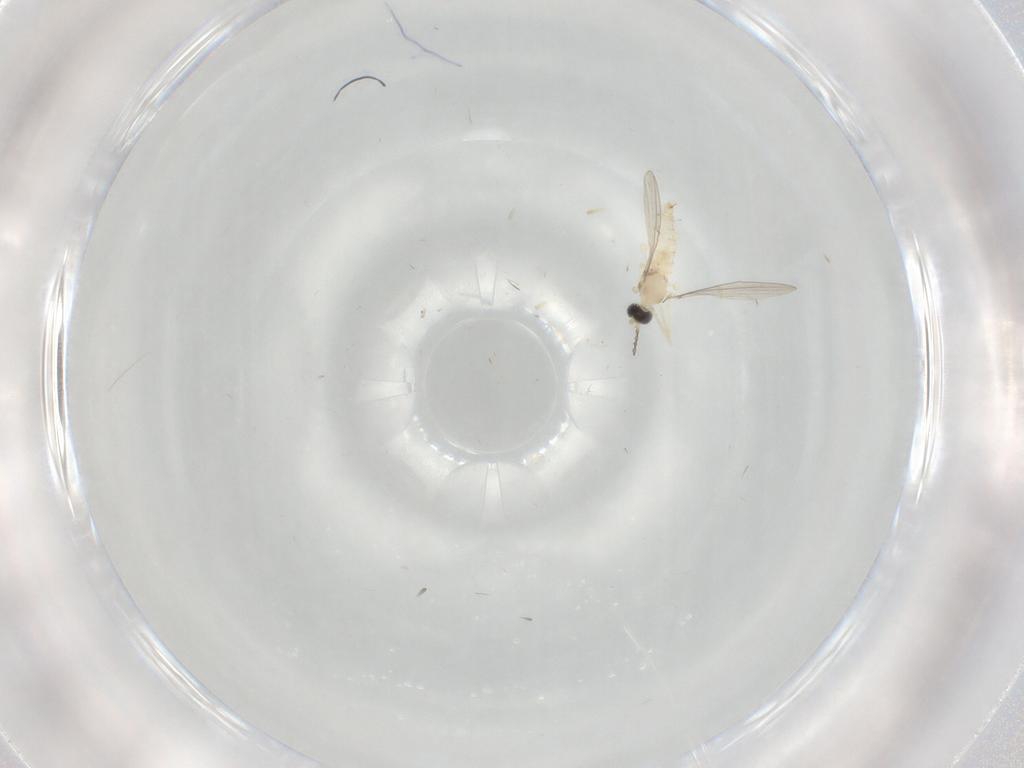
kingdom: Animalia
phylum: Arthropoda
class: Insecta
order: Diptera
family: Cecidomyiidae
